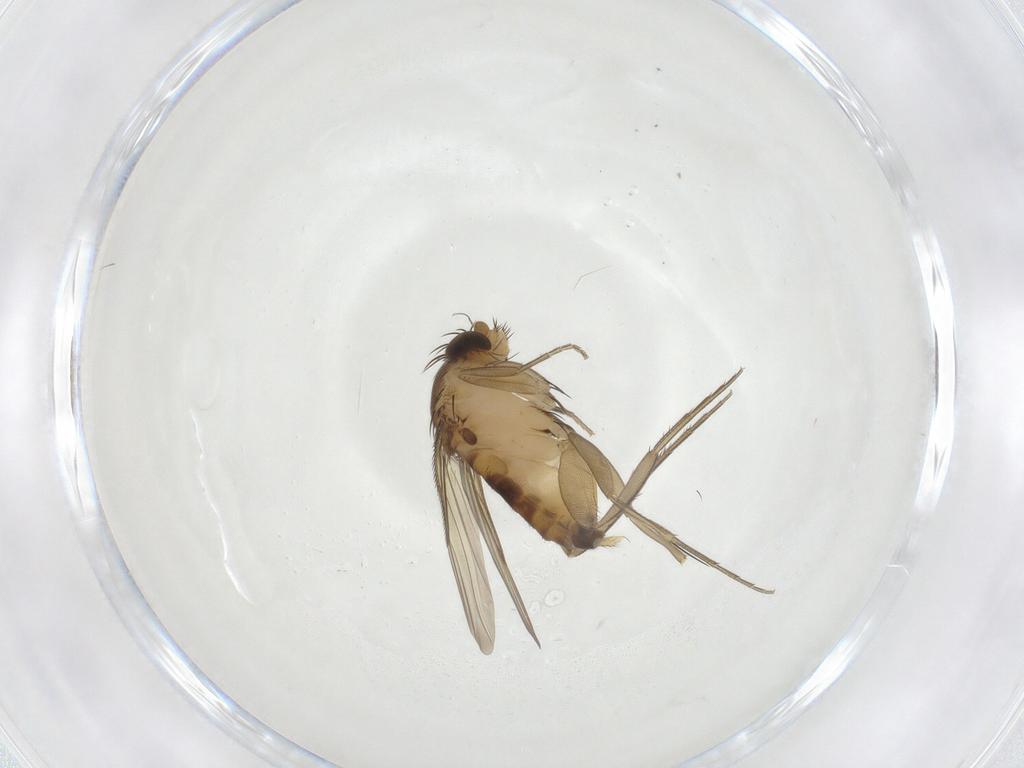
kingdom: Animalia
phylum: Arthropoda
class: Insecta
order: Diptera
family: Phoridae
